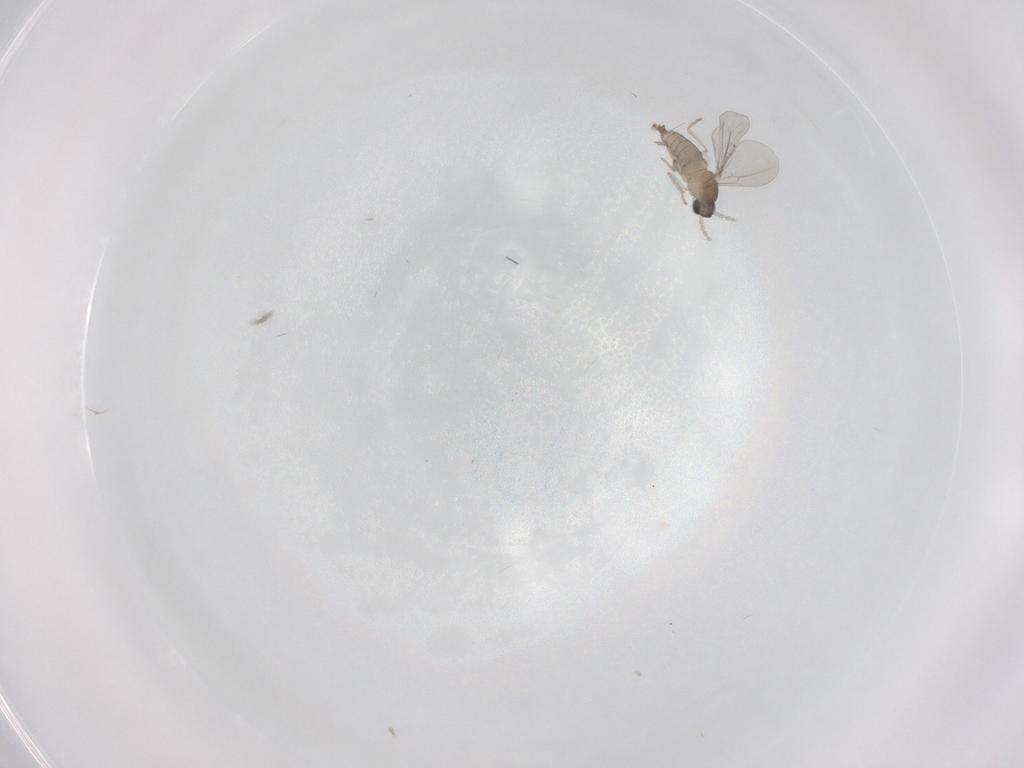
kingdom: Animalia
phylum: Arthropoda
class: Insecta
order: Diptera
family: Cecidomyiidae
